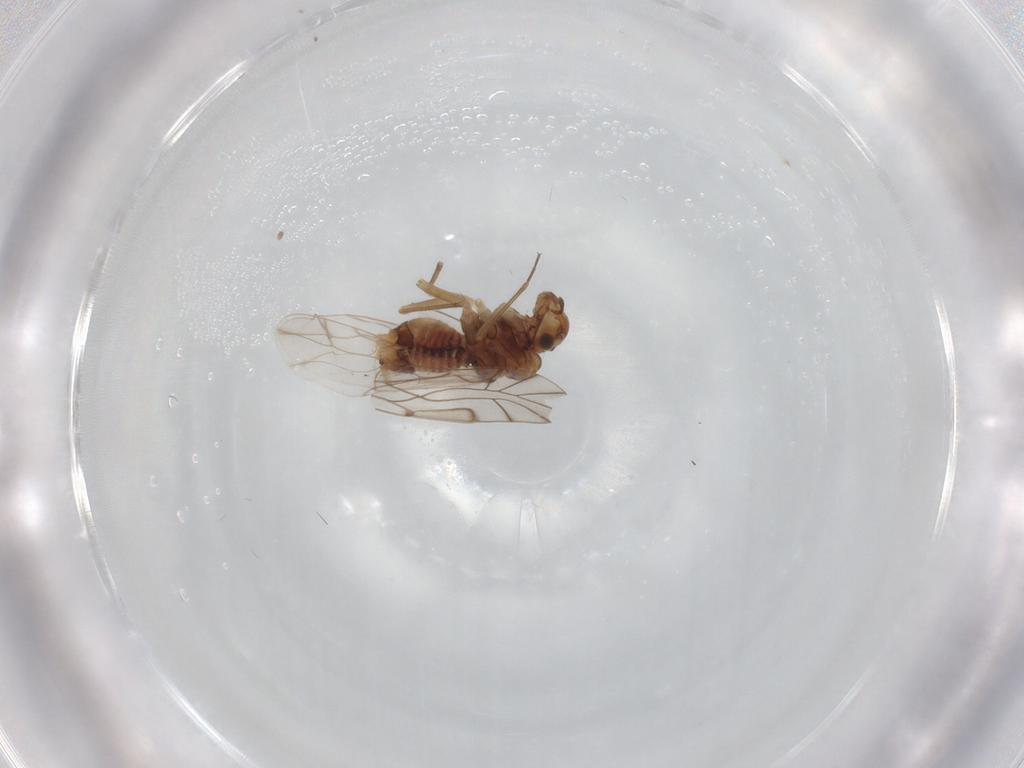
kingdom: Animalia
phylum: Arthropoda
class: Insecta
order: Psocodea
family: Lachesillidae
